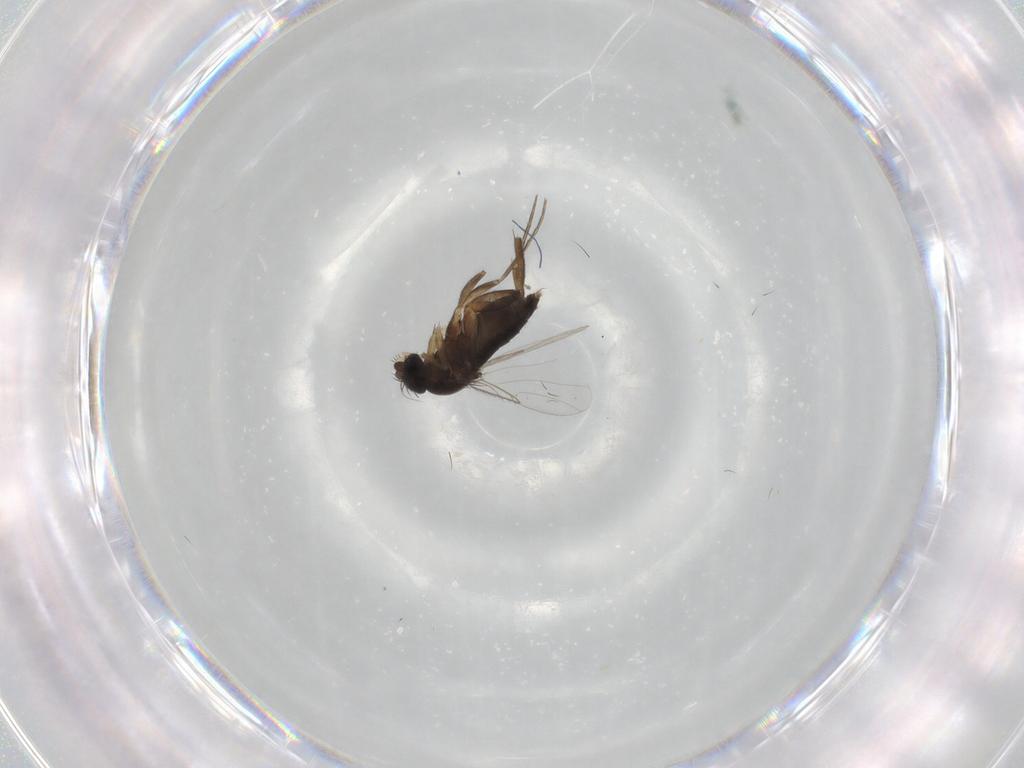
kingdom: Animalia
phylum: Arthropoda
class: Insecta
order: Diptera
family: Phoridae
